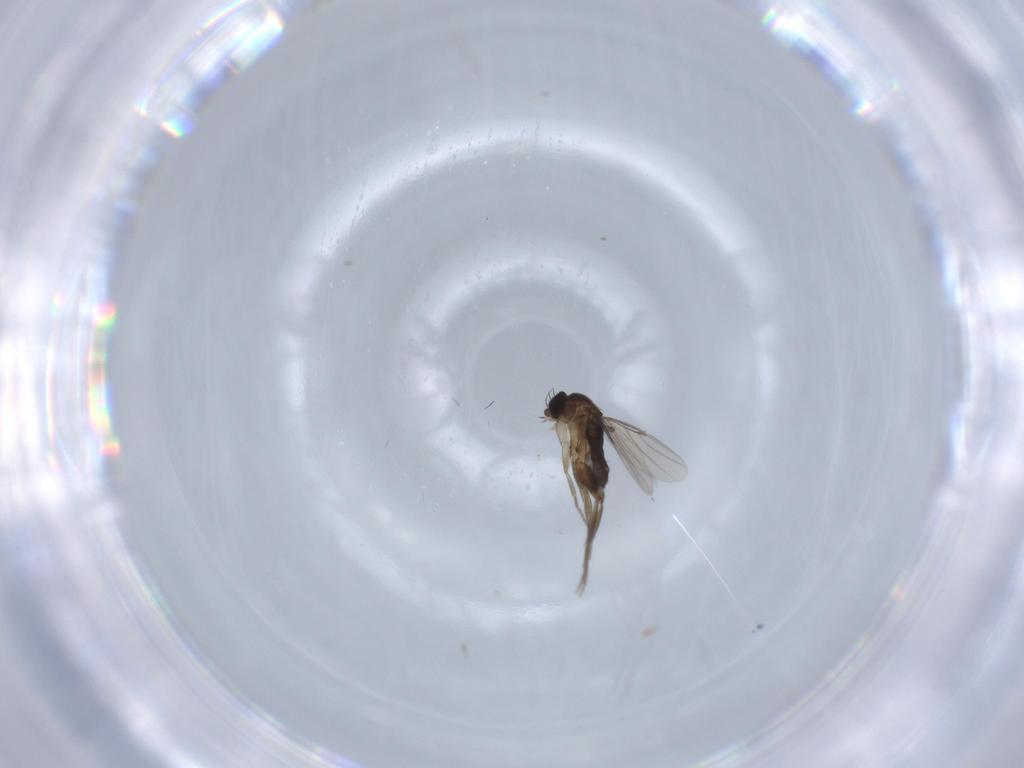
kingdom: Animalia
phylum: Arthropoda
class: Insecta
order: Diptera
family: Phoridae
